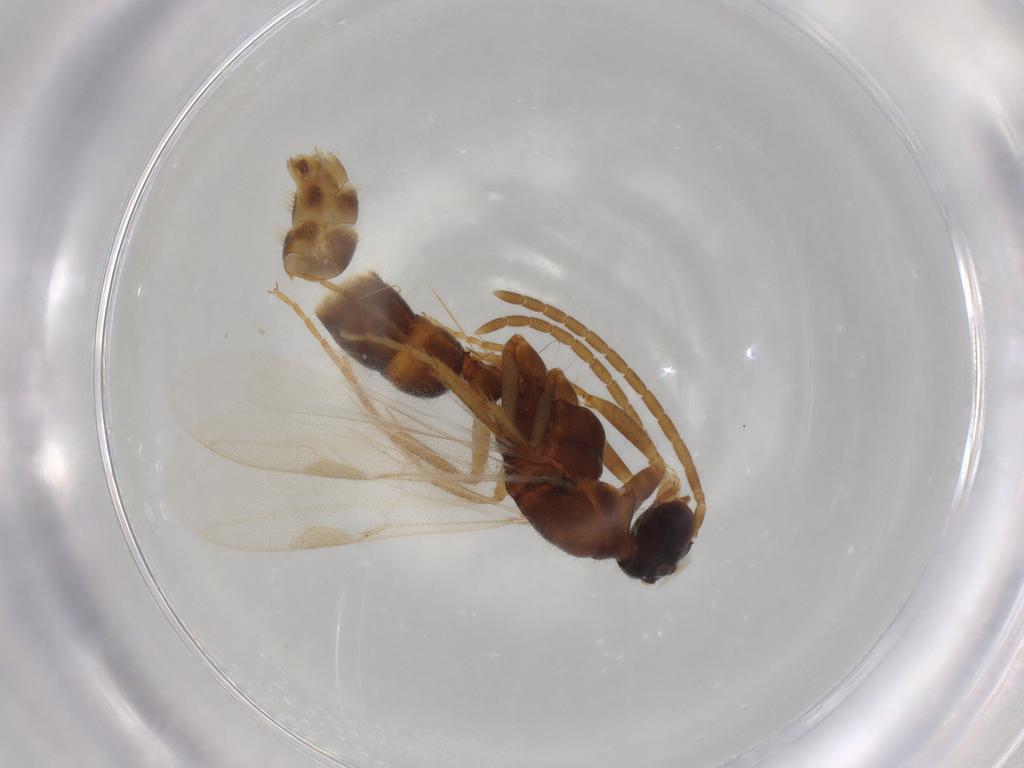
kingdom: Animalia
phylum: Arthropoda
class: Insecta
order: Hymenoptera
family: Formicidae
